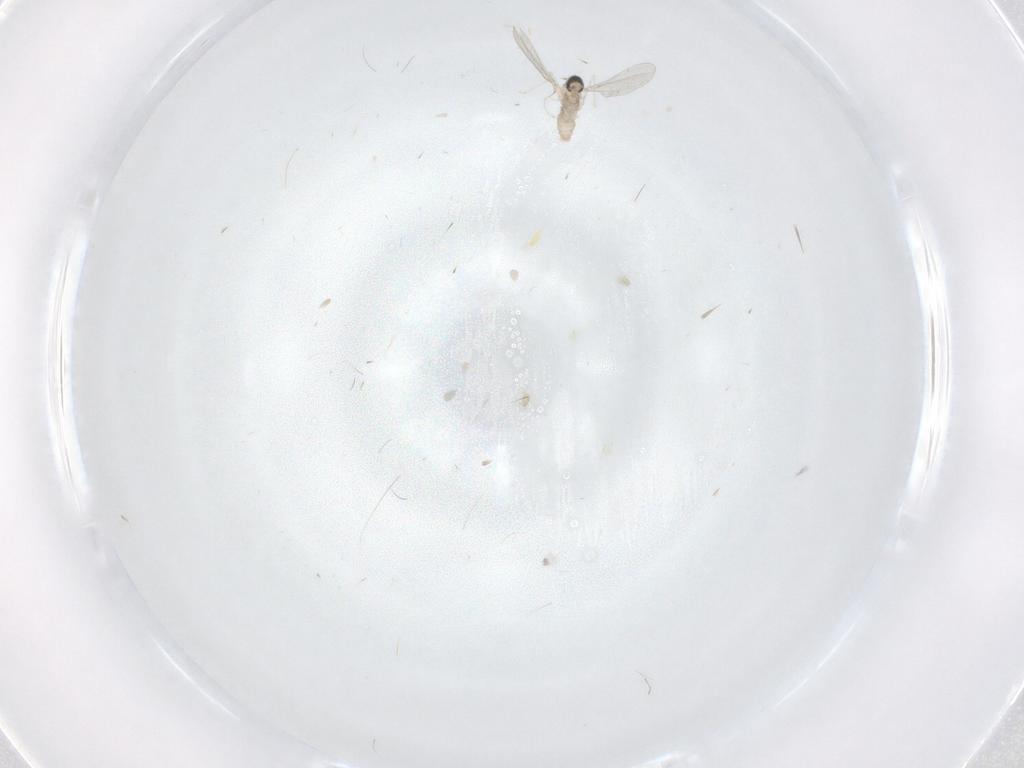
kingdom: Animalia
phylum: Arthropoda
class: Insecta
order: Diptera
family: Cecidomyiidae
